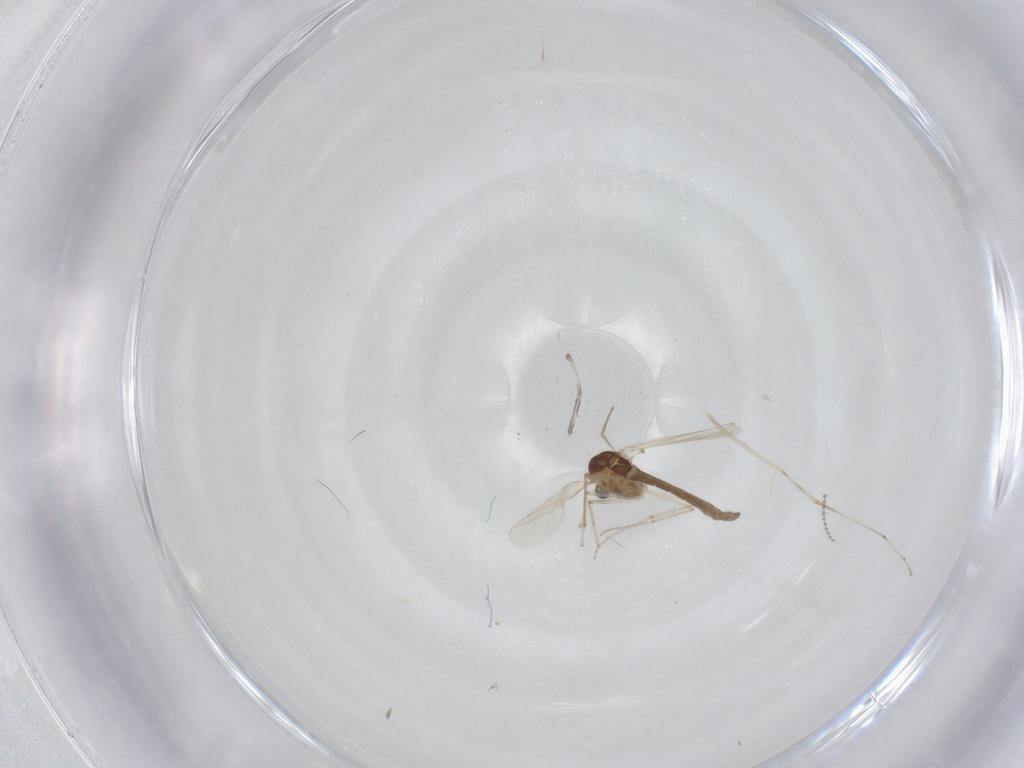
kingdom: Animalia
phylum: Arthropoda
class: Insecta
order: Diptera
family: Cecidomyiidae
